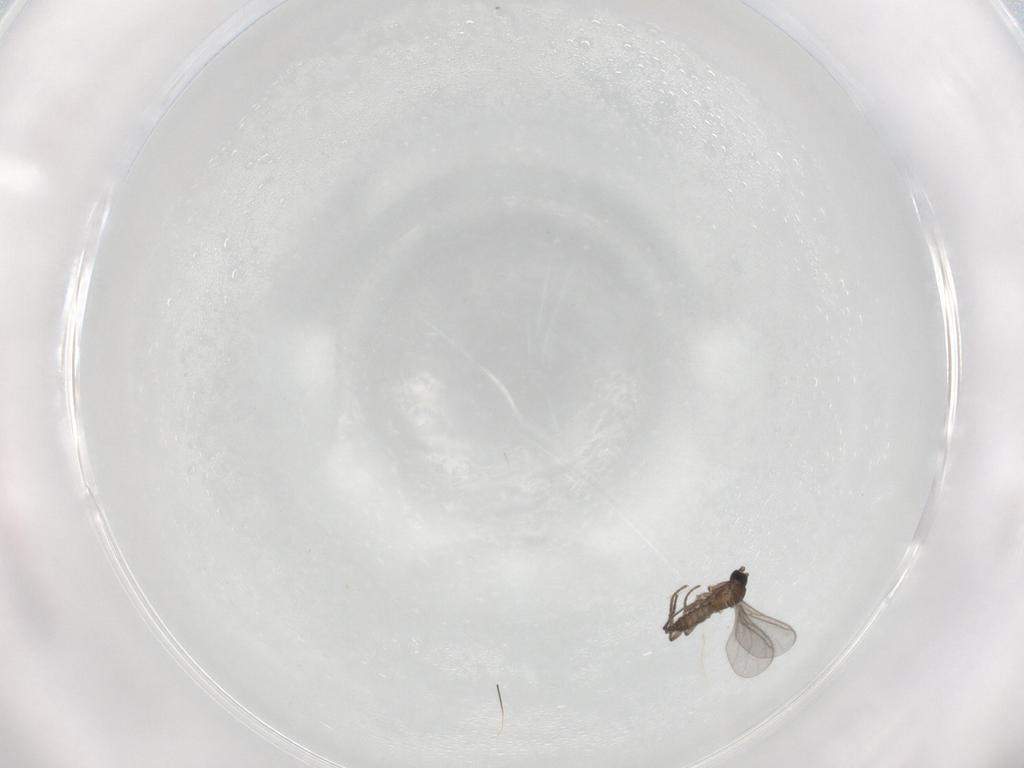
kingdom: Animalia
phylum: Arthropoda
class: Insecta
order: Diptera
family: Sciaridae
